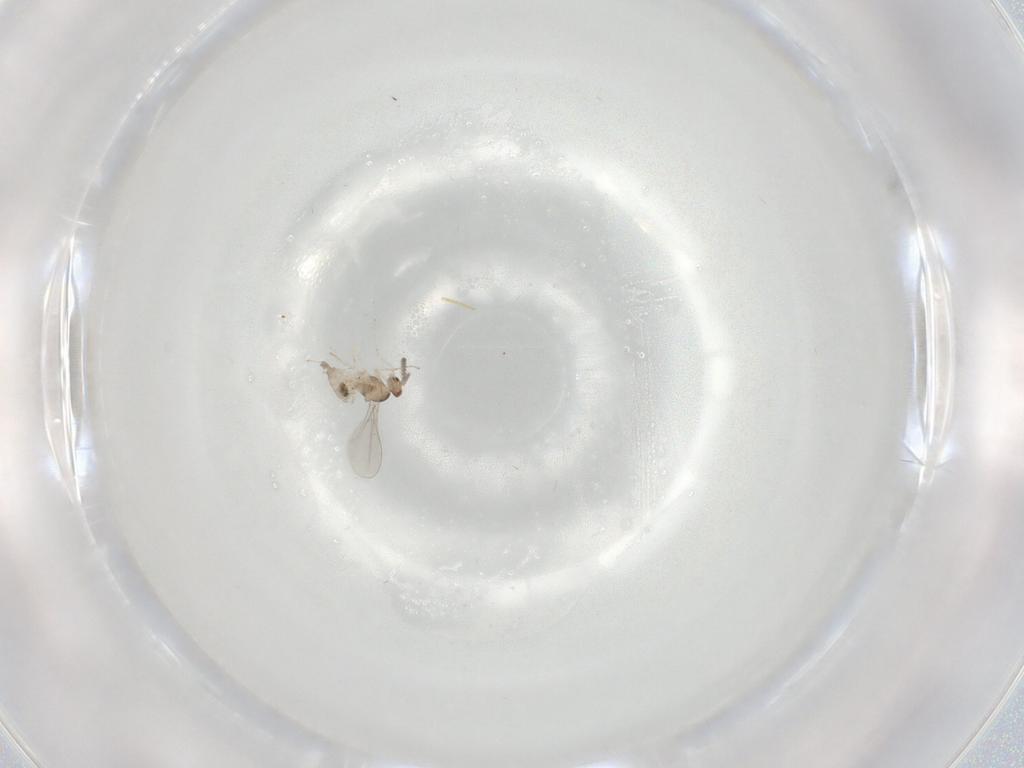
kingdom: Animalia
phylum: Arthropoda
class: Insecta
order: Diptera
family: Cecidomyiidae
